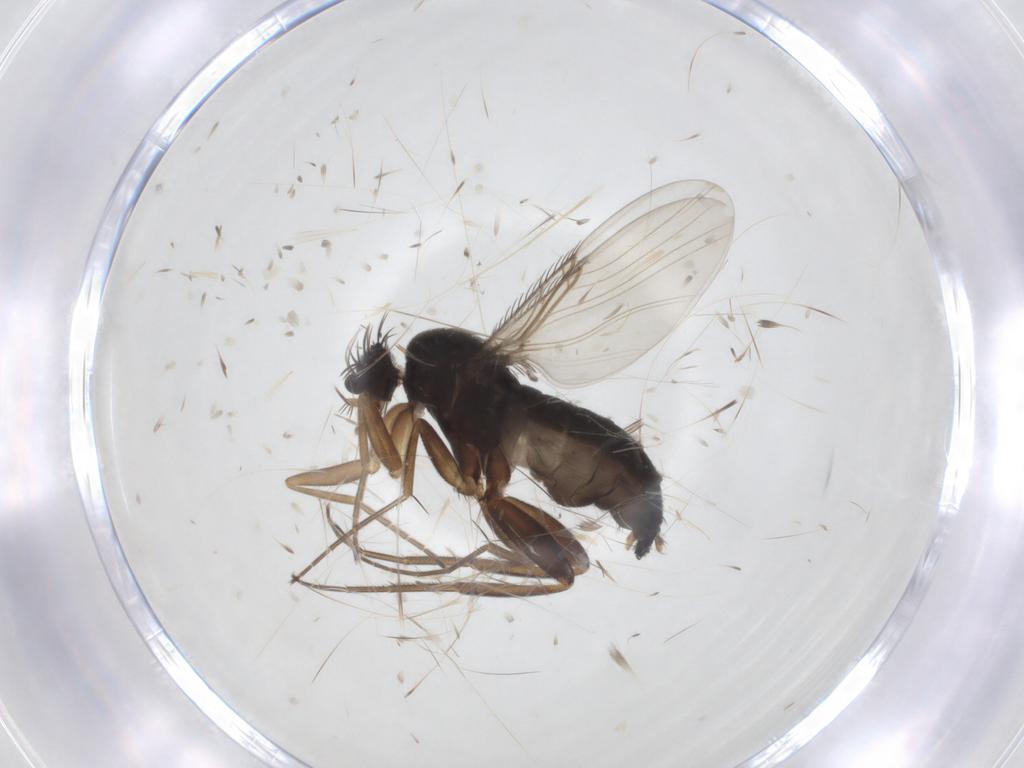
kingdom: Animalia
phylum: Arthropoda
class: Insecta
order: Diptera
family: Phoridae
